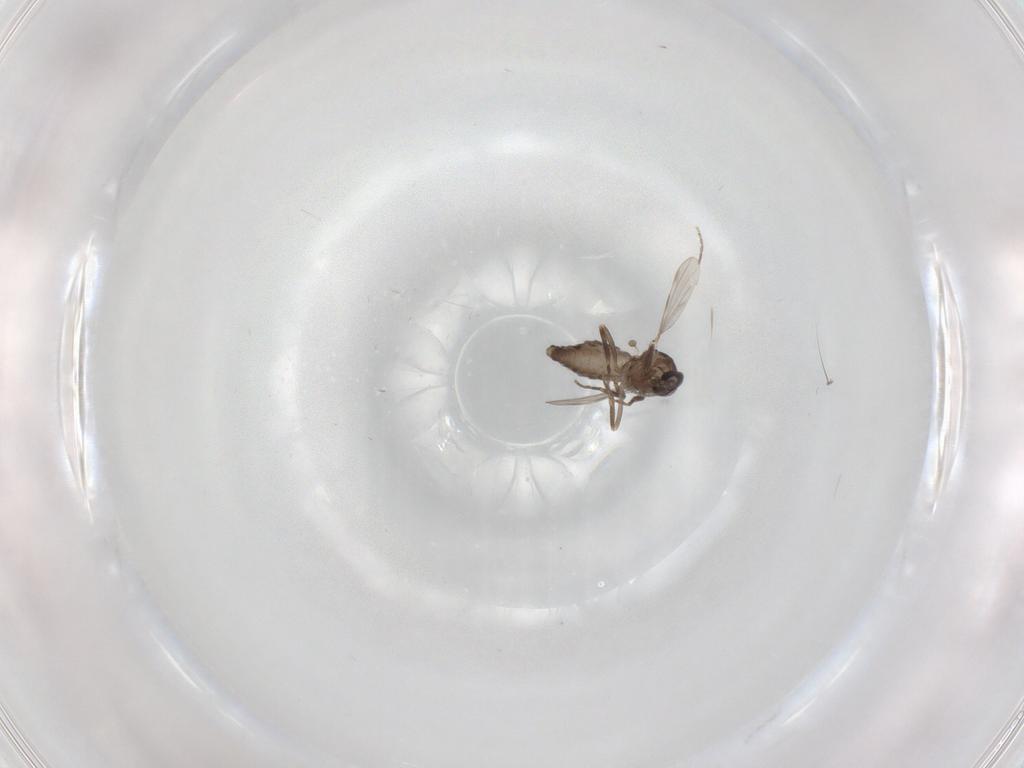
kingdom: Animalia
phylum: Arthropoda
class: Insecta
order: Diptera
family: Ceratopogonidae
